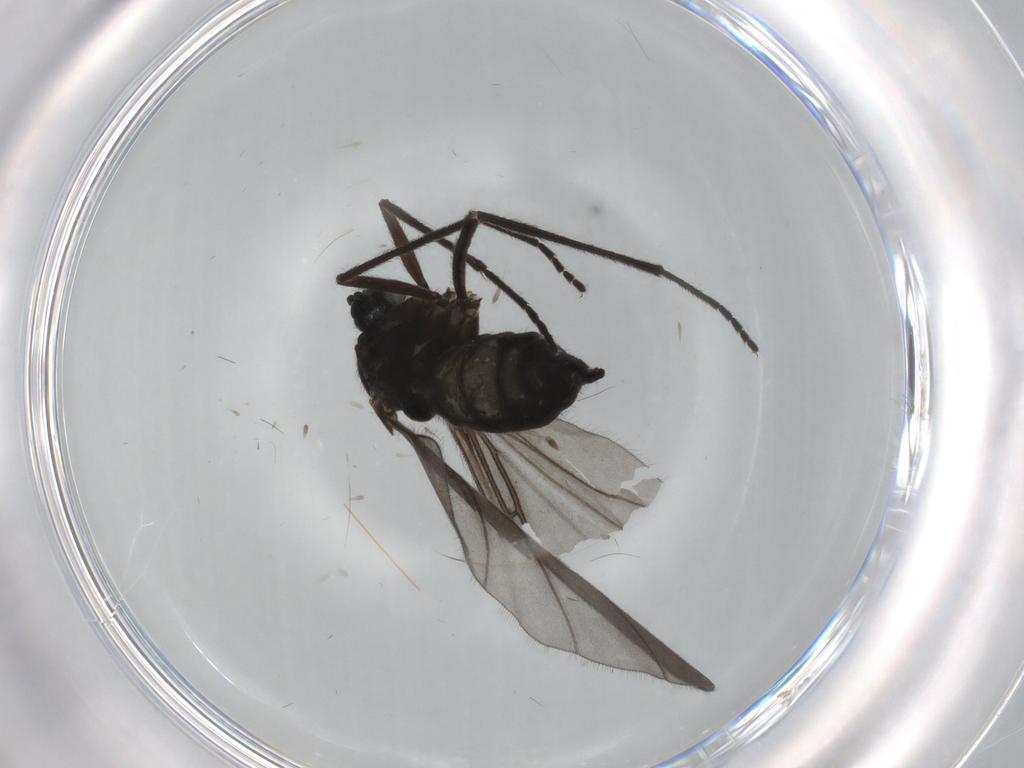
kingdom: Animalia
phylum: Arthropoda
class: Insecta
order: Diptera
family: Sciaridae
